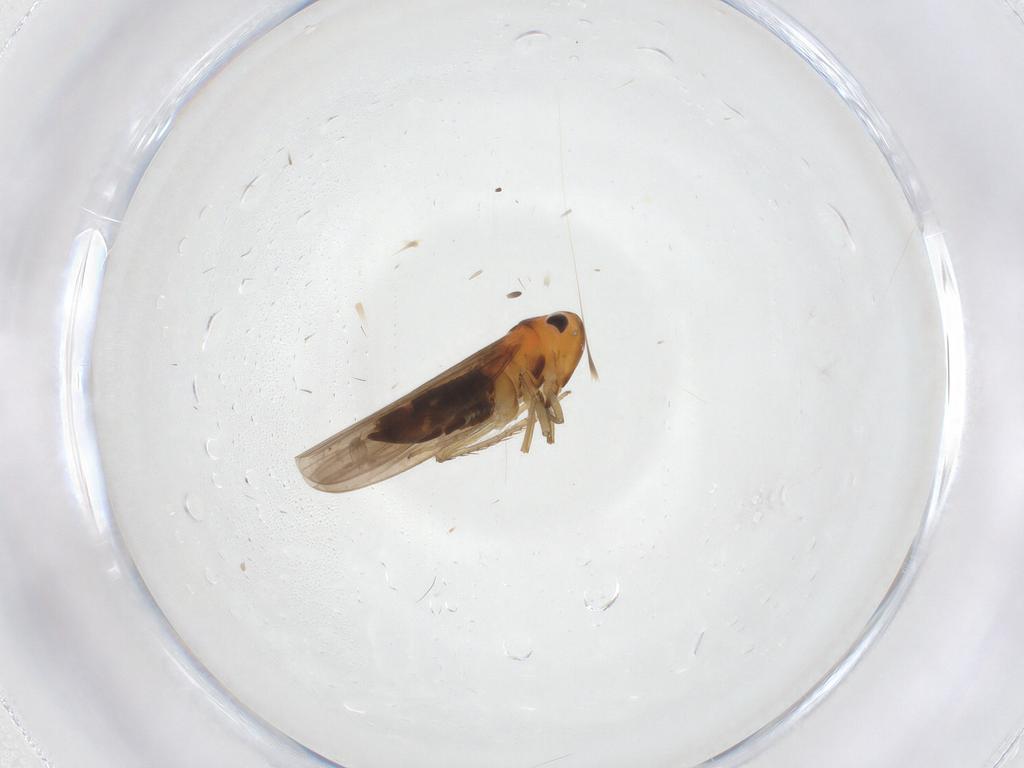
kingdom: Animalia
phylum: Arthropoda
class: Insecta
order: Hemiptera
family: Cicadellidae
